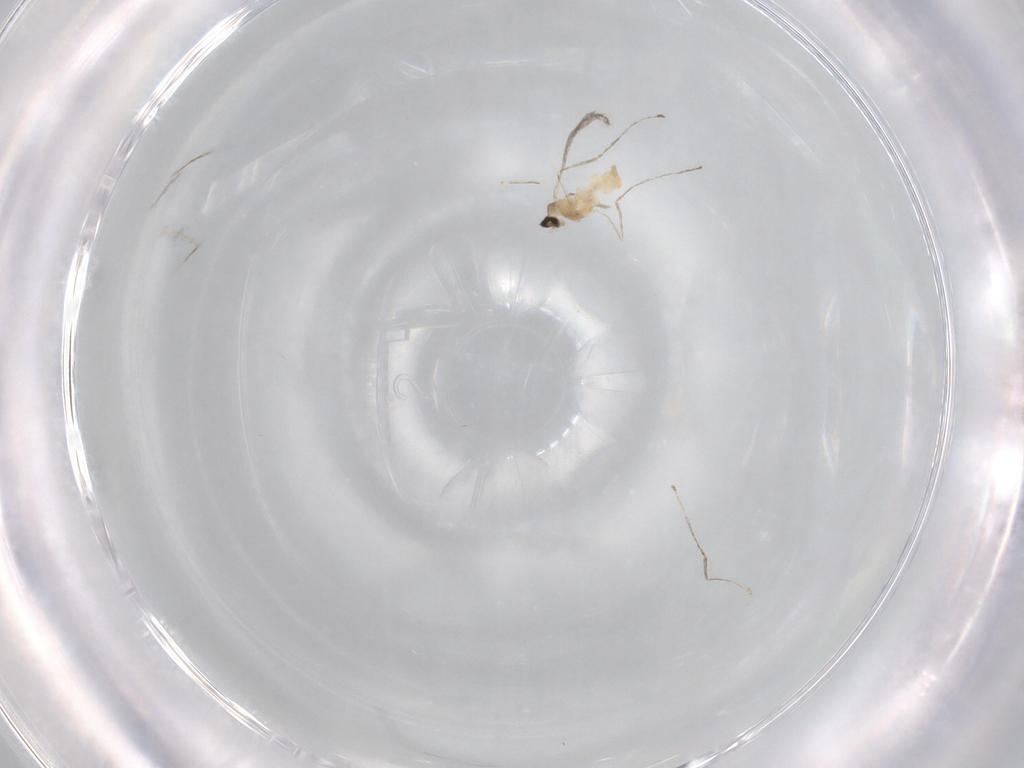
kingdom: Animalia
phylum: Arthropoda
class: Insecta
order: Diptera
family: Cecidomyiidae
